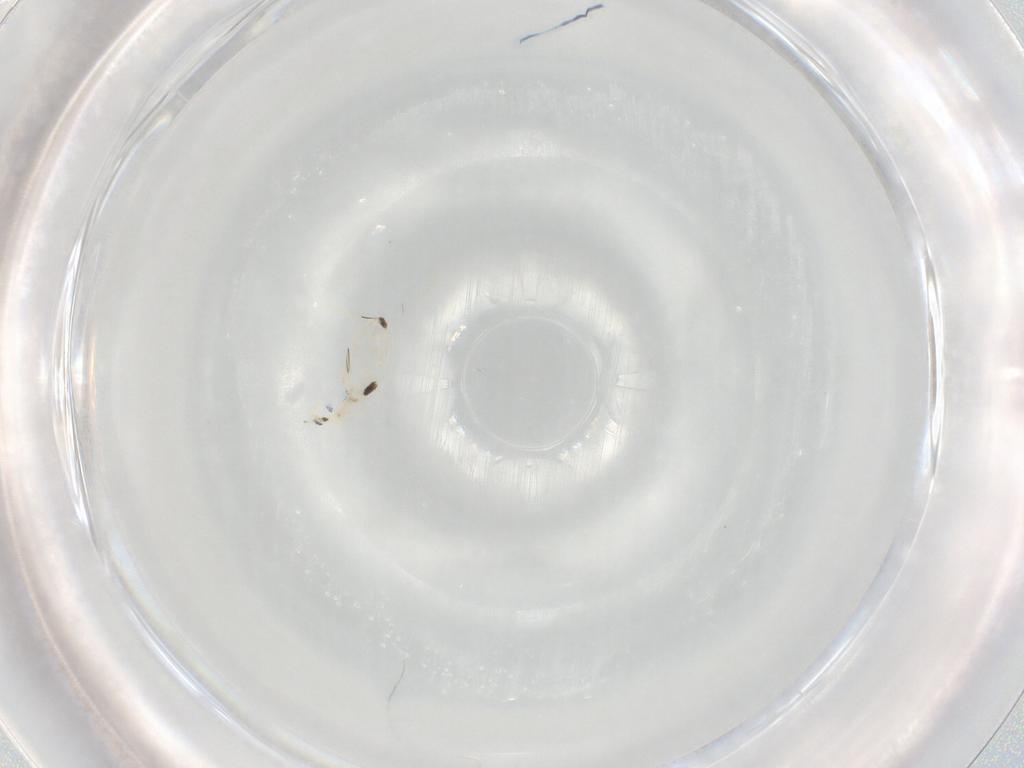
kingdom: Animalia
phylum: Arthropoda
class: Collembola
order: Entomobryomorpha
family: Entomobryidae
